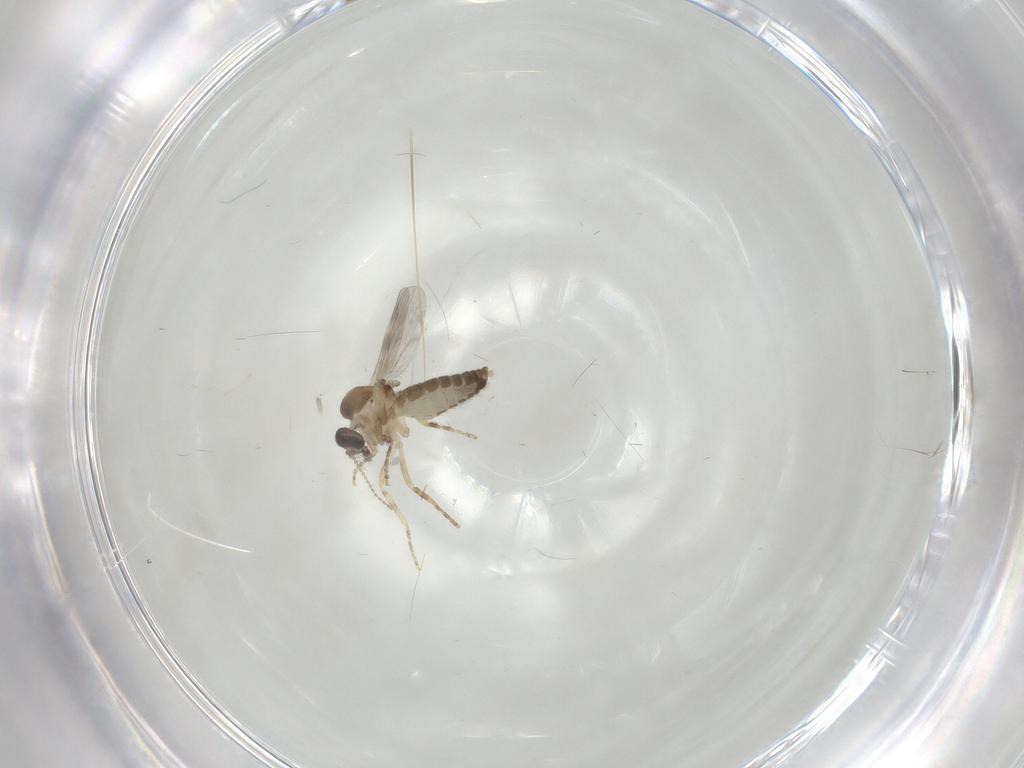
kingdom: Animalia
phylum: Arthropoda
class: Insecta
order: Diptera
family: Ceratopogonidae
